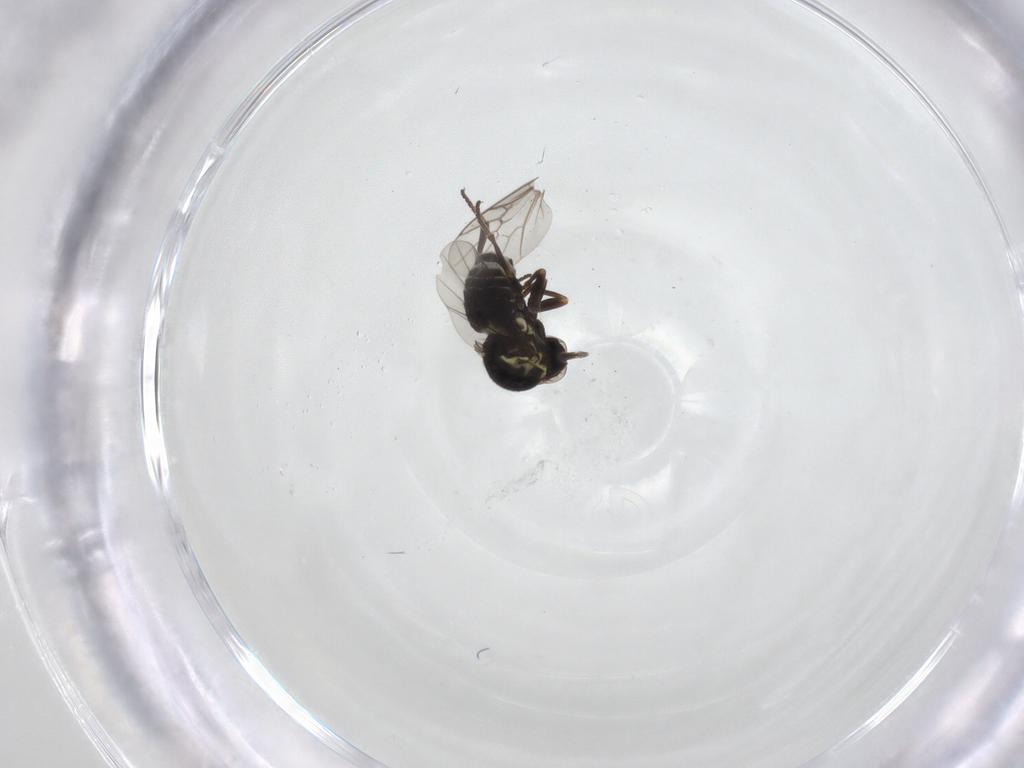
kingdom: Animalia
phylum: Arthropoda
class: Insecta
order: Diptera
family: Bombyliidae
